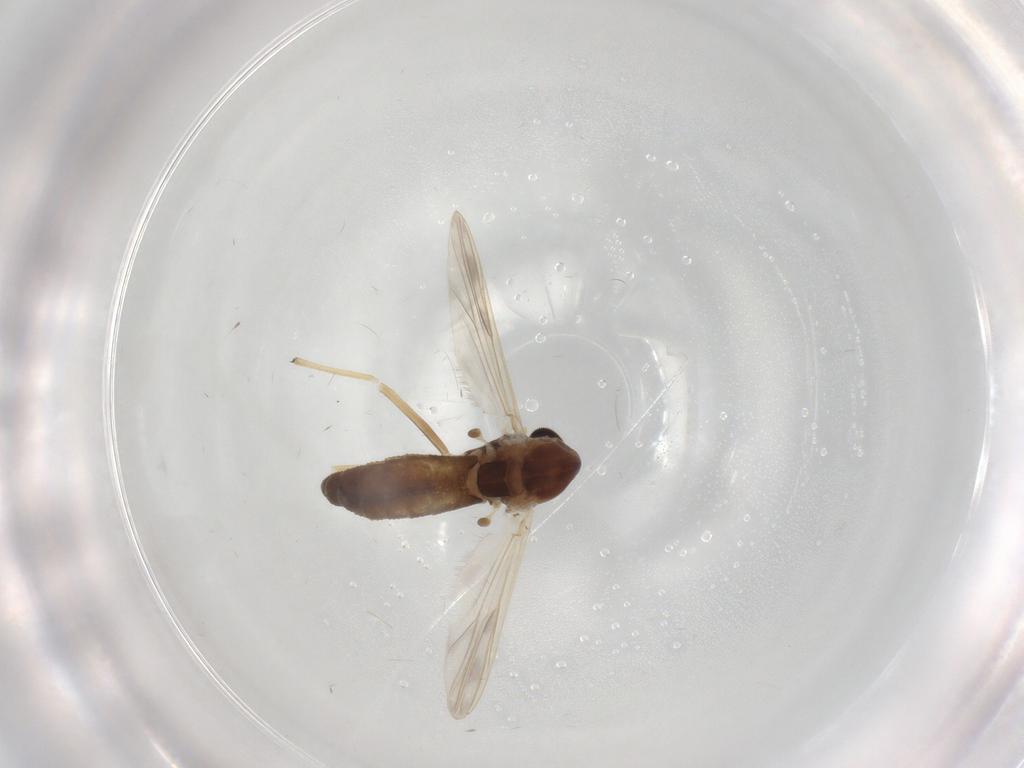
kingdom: Animalia
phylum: Arthropoda
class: Insecta
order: Diptera
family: Chironomidae
